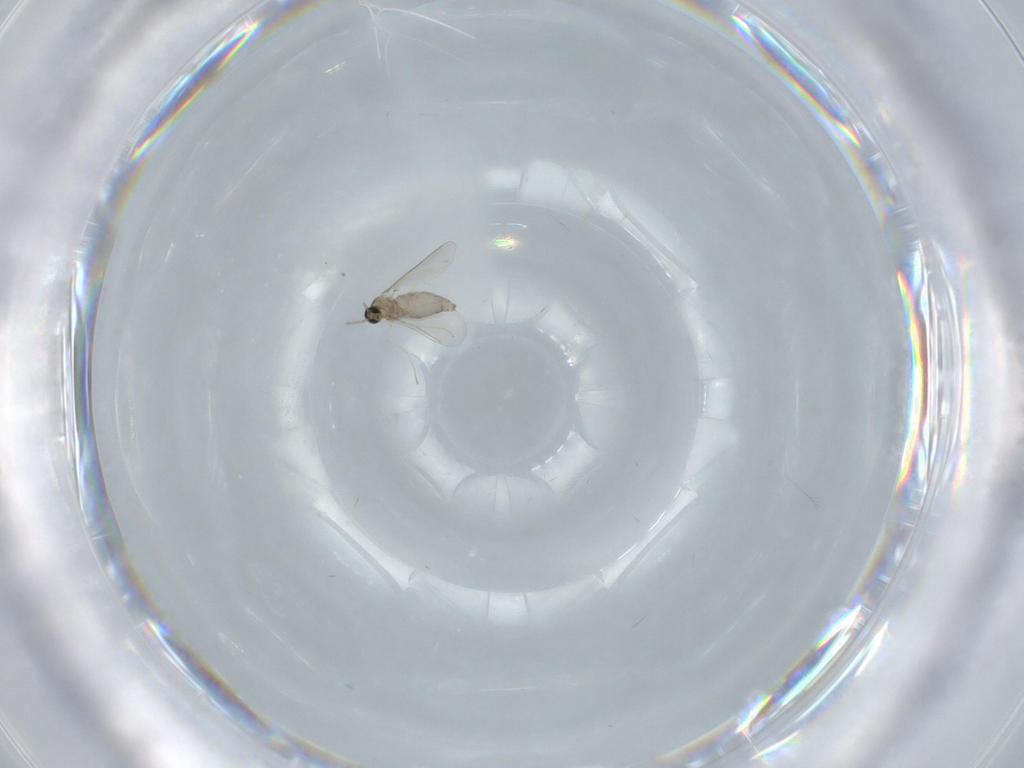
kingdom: Animalia
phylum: Arthropoda
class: Insecta
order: Diptera
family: Cecidomyiidae
